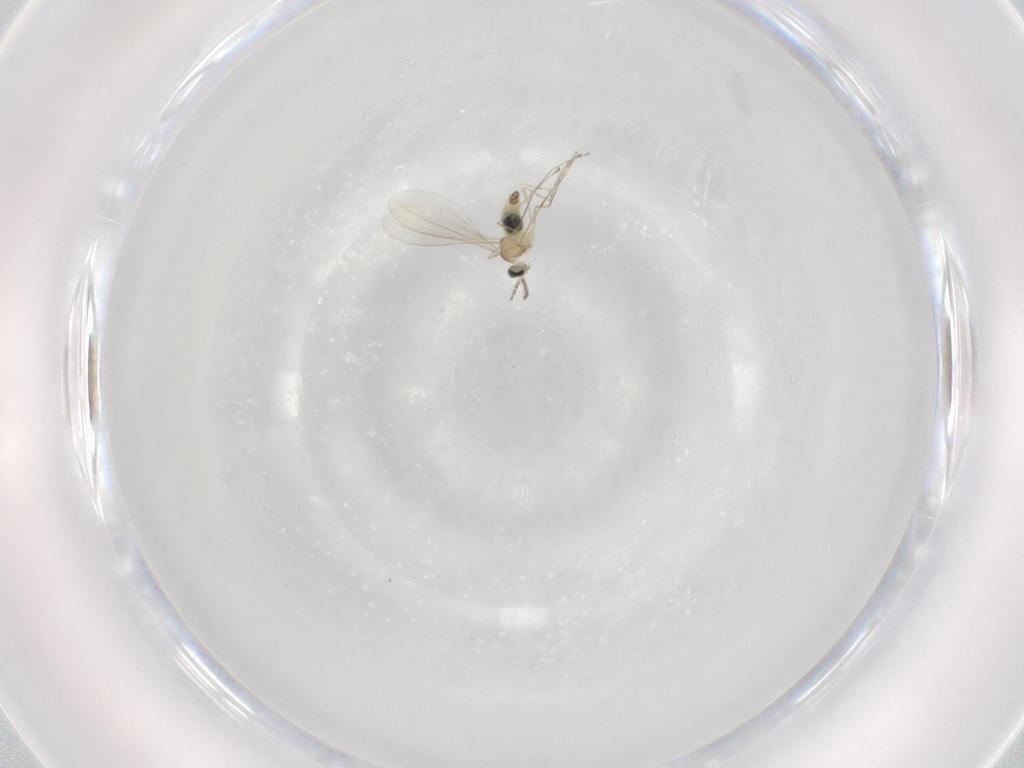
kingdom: Animalia
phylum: Arthropoda
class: Insecta
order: Diptera
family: Cecidomyiidae
